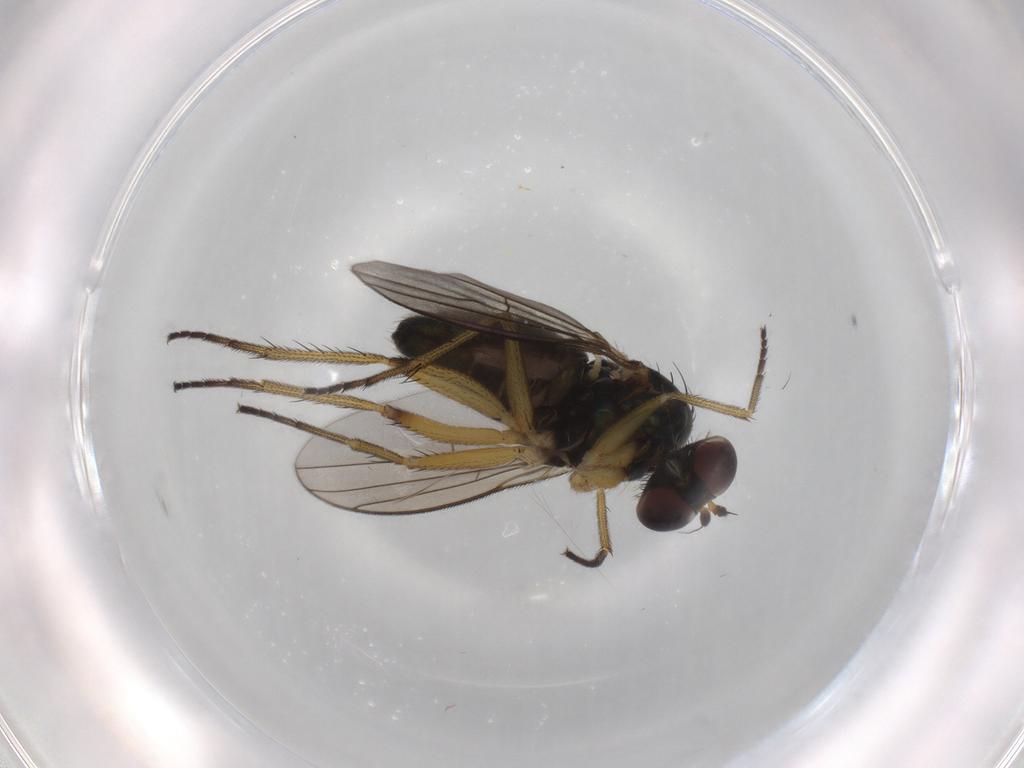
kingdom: Animalia
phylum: Arthropoda
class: Insecta
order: Diptera
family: Dolichopodidae
